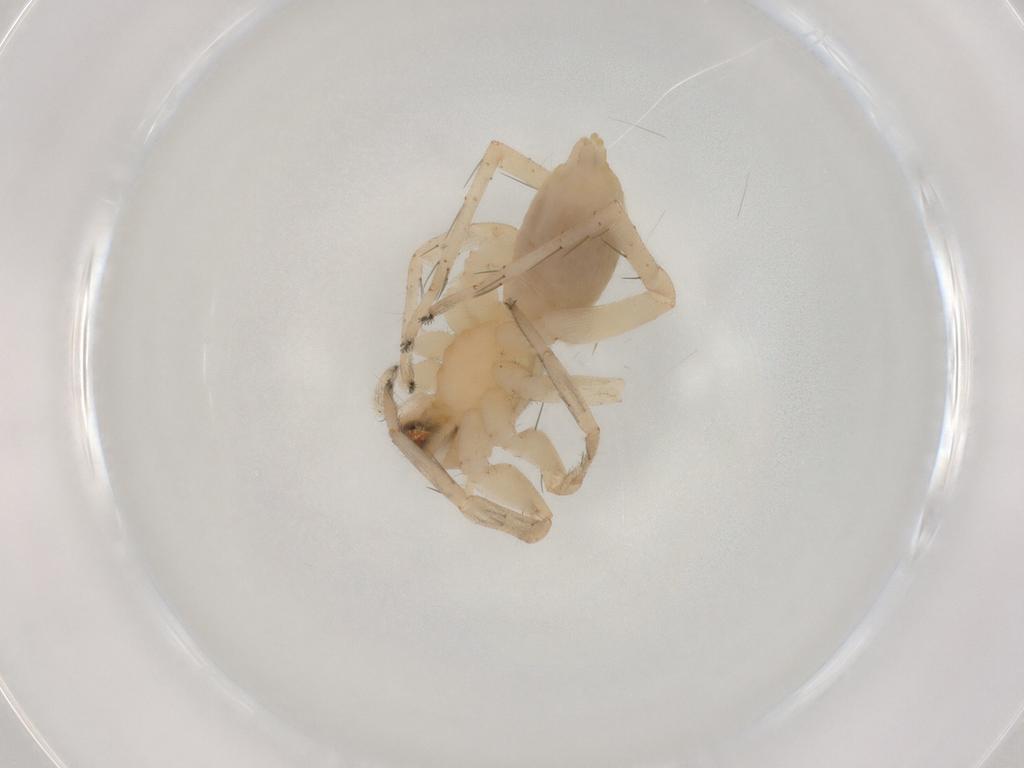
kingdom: Animalia
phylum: Arthropoda
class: Arachnida
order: Araneae
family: Anyphaenidae
